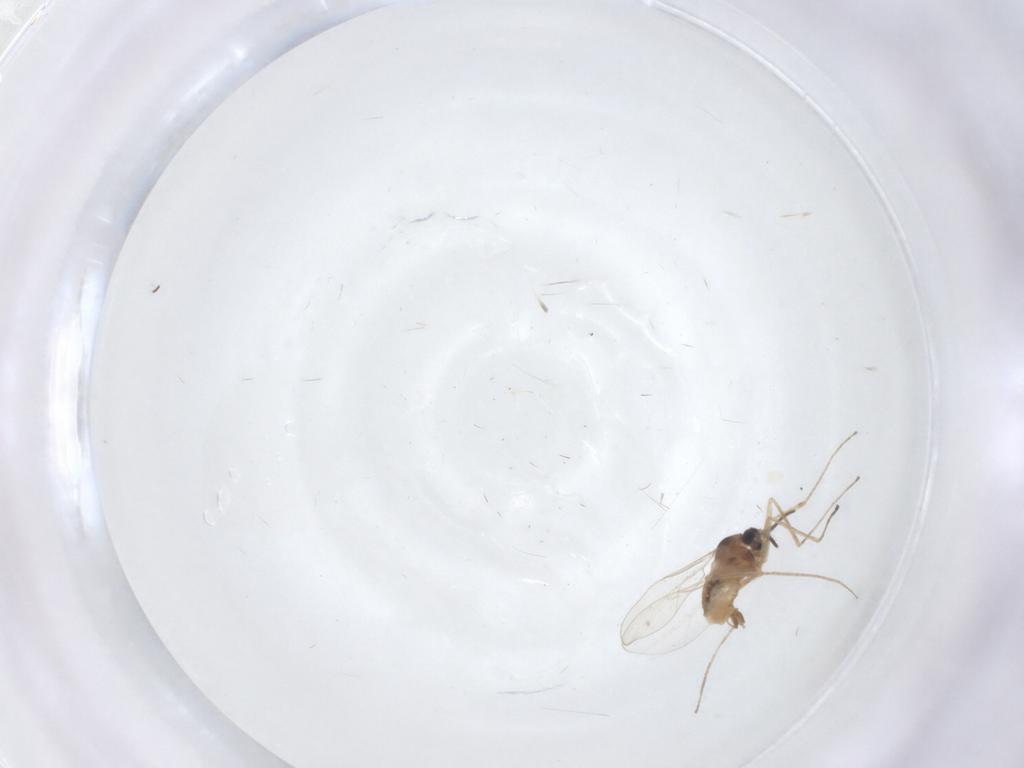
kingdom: Animalia
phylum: Arthropoda
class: Insecta
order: Diptera
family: Cecidomyiidae
